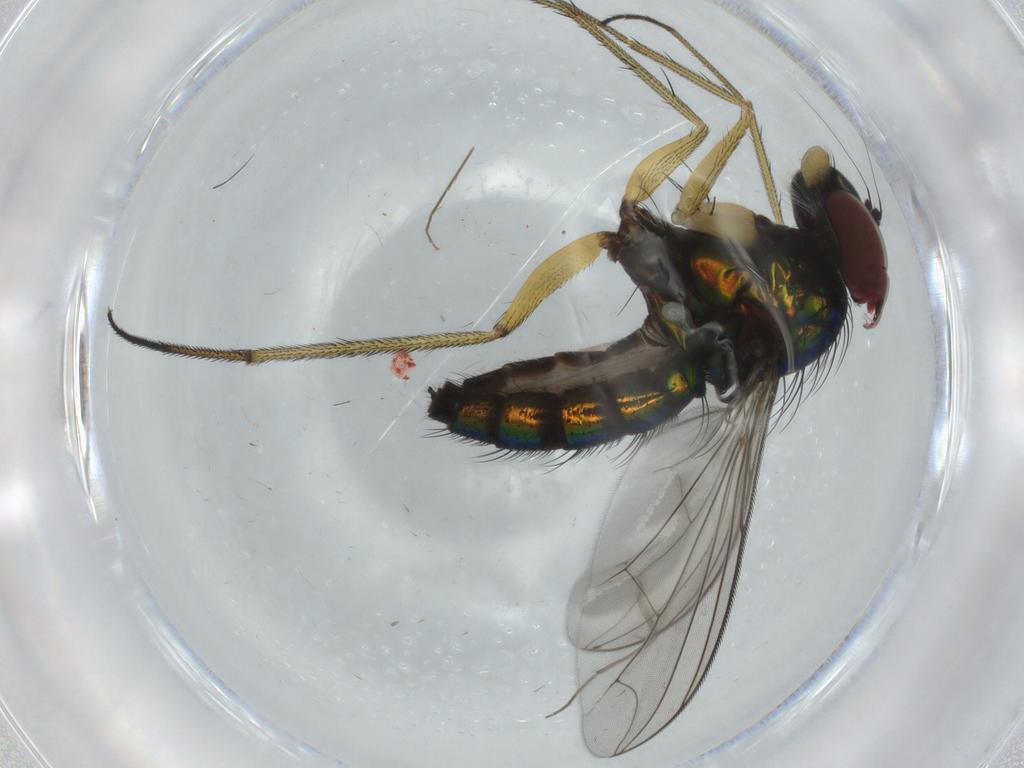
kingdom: Animalia
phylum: Arthropoda
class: Insecta
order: Diptera
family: Dolichopodidae
